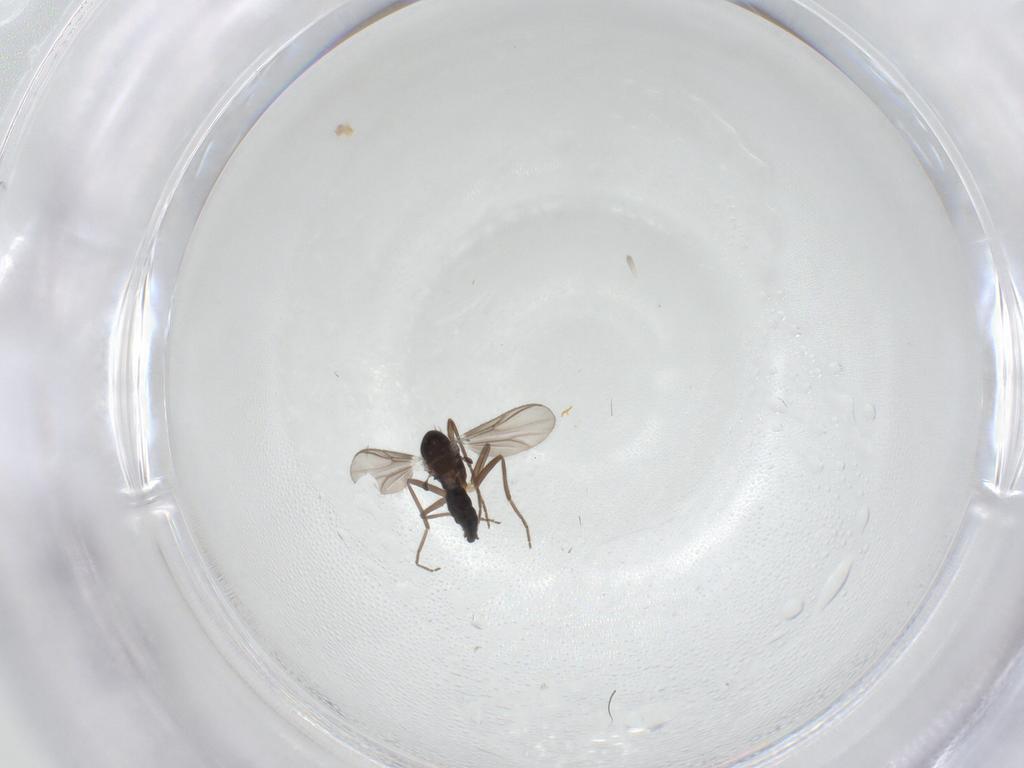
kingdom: Animalia
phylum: Arthropoda
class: Insecta
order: Diptera
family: Chironomidae
